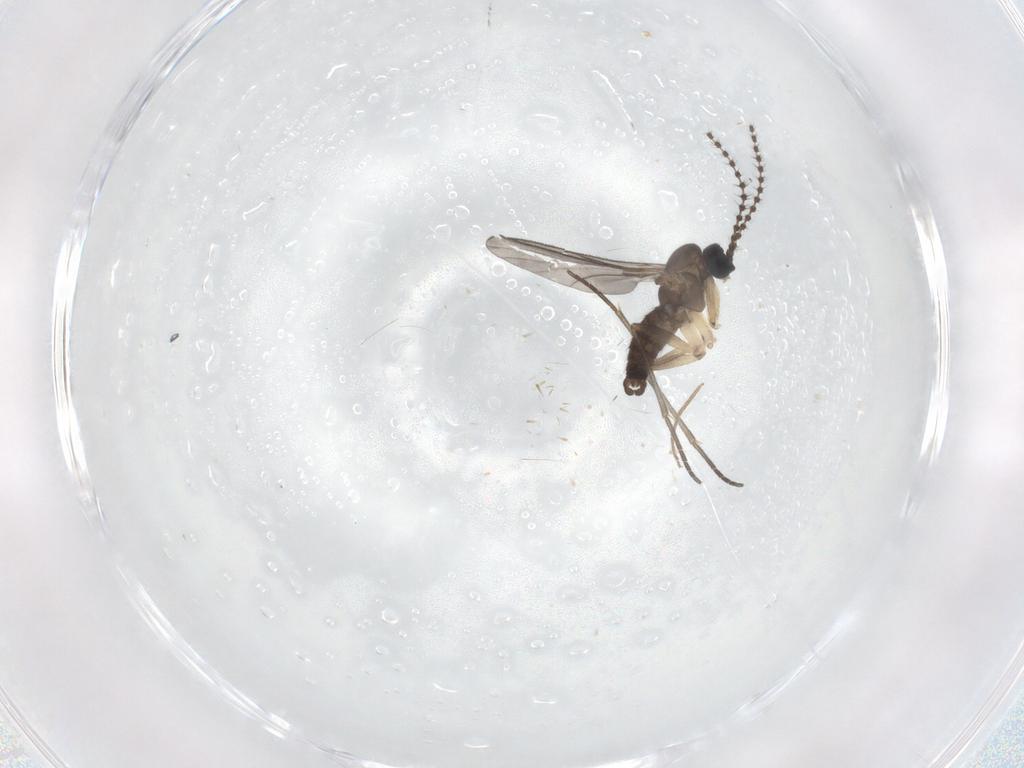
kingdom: Animalia
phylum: Arthropoda
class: Insecta
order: Diptera
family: Sciaridae
